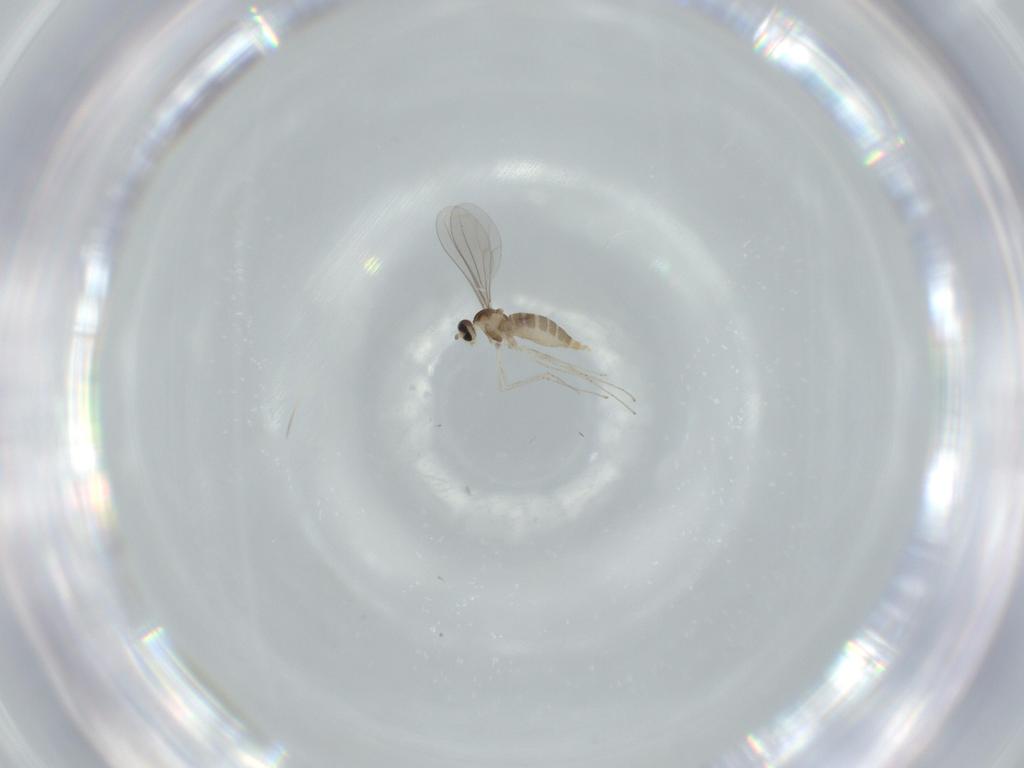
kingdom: Animalia
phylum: Arthropoda
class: Insecta
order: Diptera
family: Cecidomyiidae
